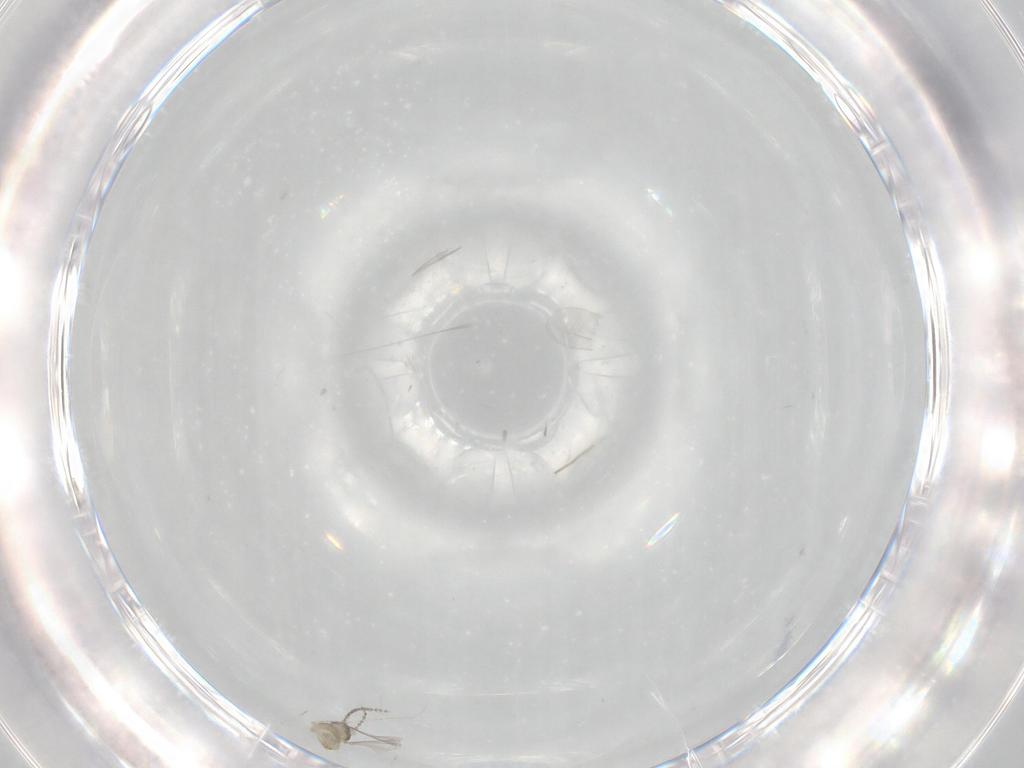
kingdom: Animalia
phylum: Arthropoda
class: Insecta
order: Diptera
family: Cecidomyiidae
